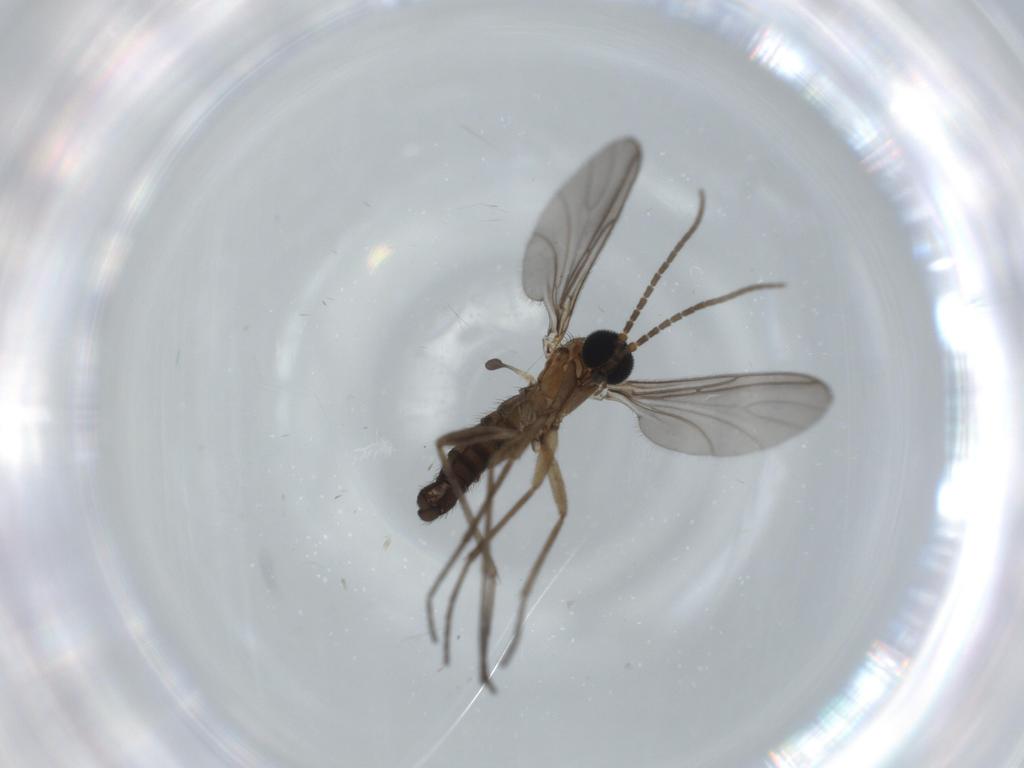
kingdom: Animalia
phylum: Arthropoda
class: Insecta
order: Diptera
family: Sciaridae
